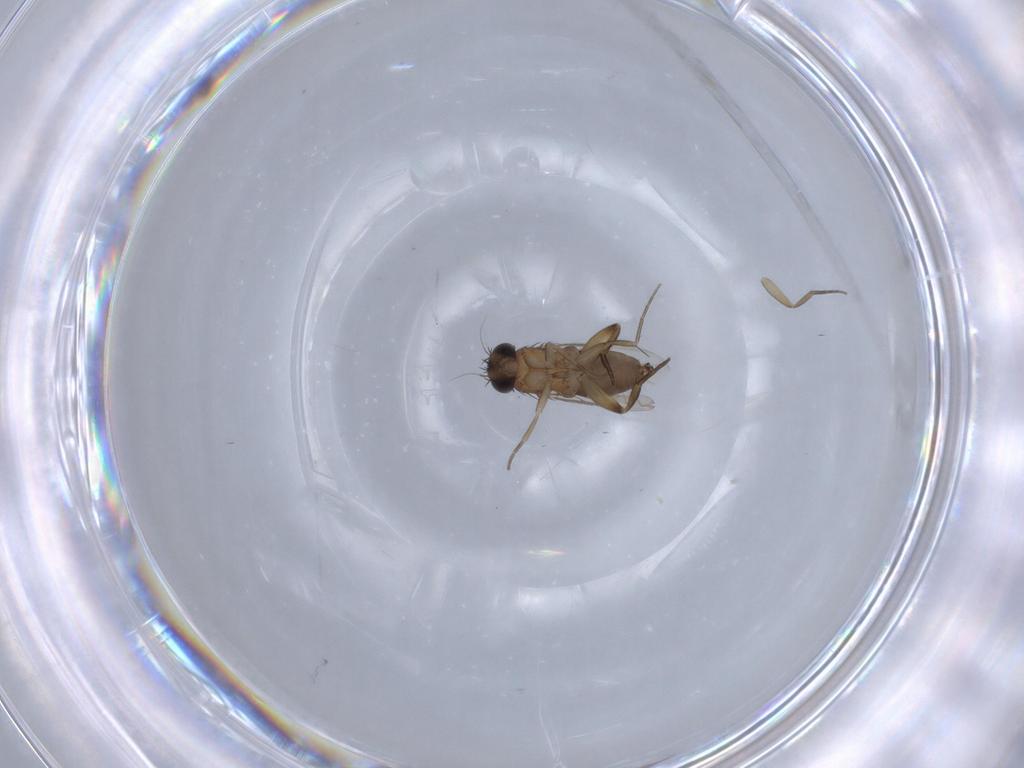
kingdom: Animalia
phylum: Arthropoda
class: Insecta
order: Diptera
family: Phoridae
